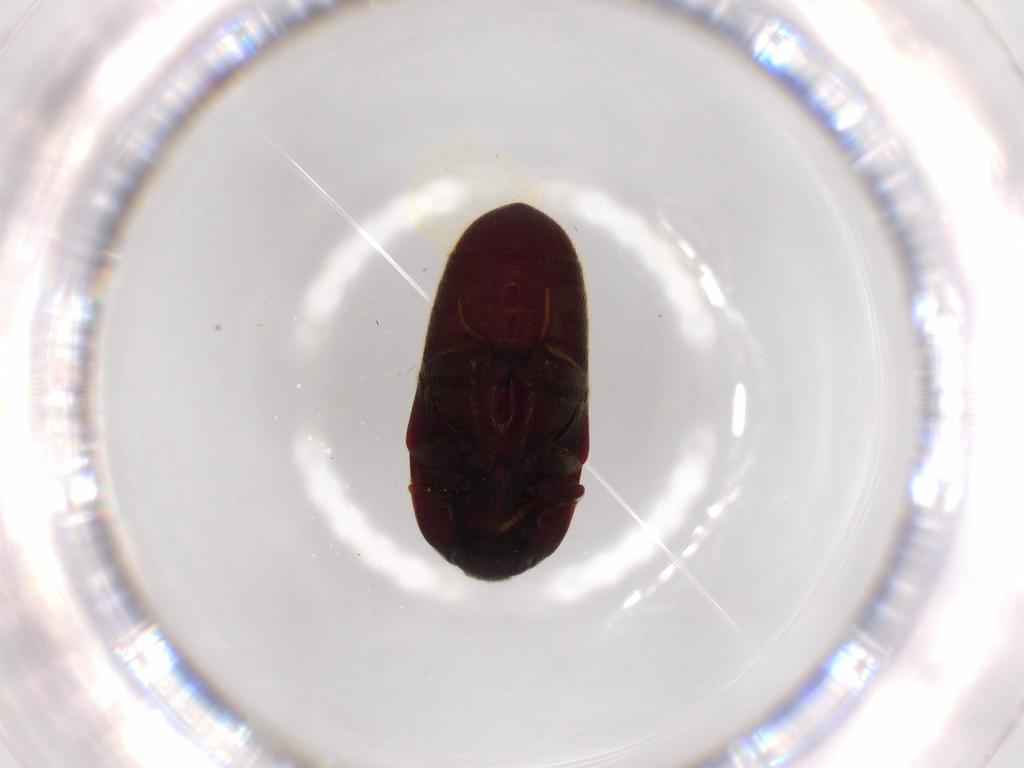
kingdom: Animalia
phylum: Arthropoda
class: Insecta
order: Coleoptera
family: Throscidae
